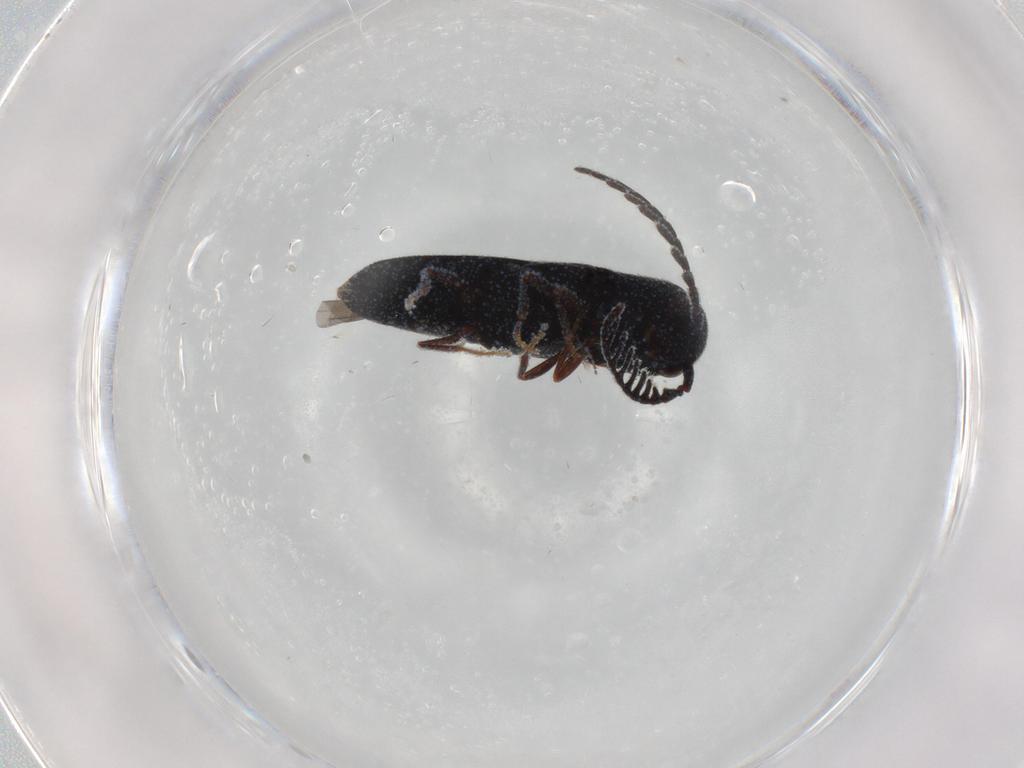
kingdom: Animalia
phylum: Arthropoda
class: Insecta
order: Coleoptera
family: Eucnemidae
